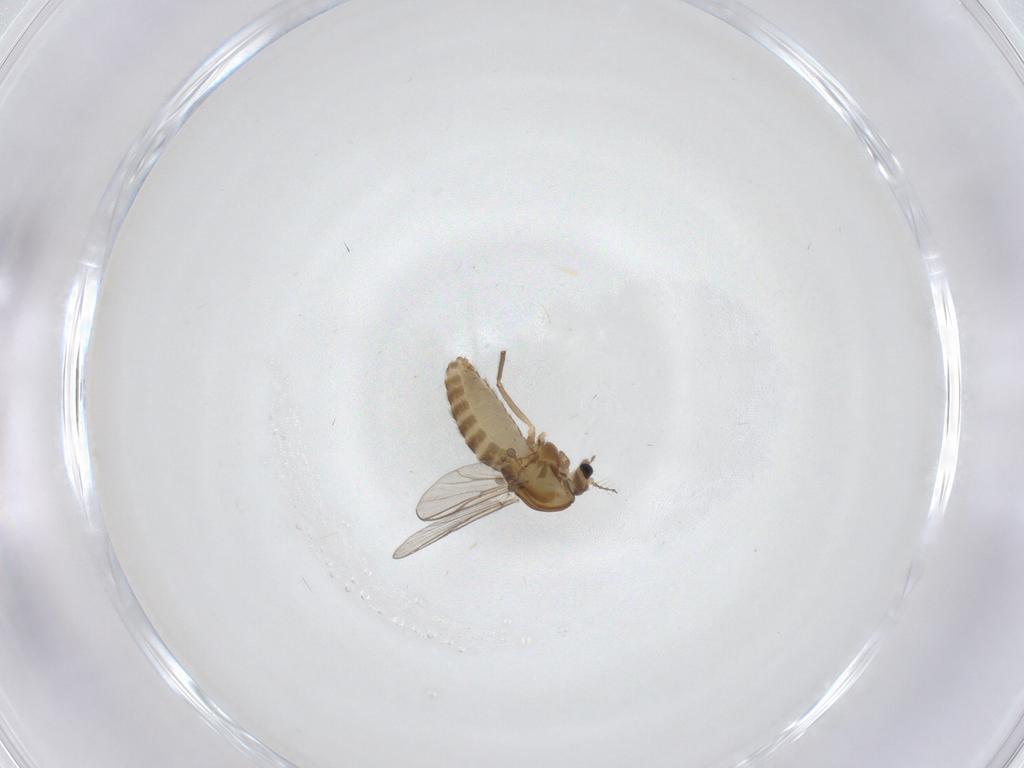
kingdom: Animalia
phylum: Arthropoda
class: Insecta
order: Diptera
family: Chironomidae
